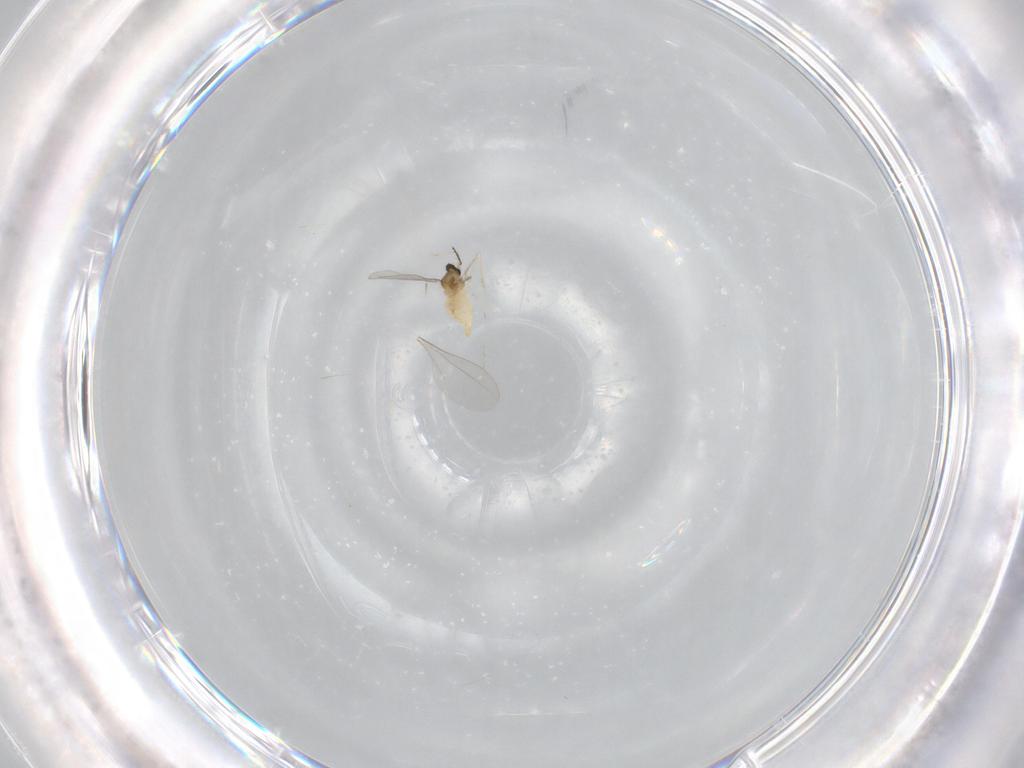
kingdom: Animalia
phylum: Arthropoda
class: Insecta
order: Diptera
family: Cecidomyiidae
